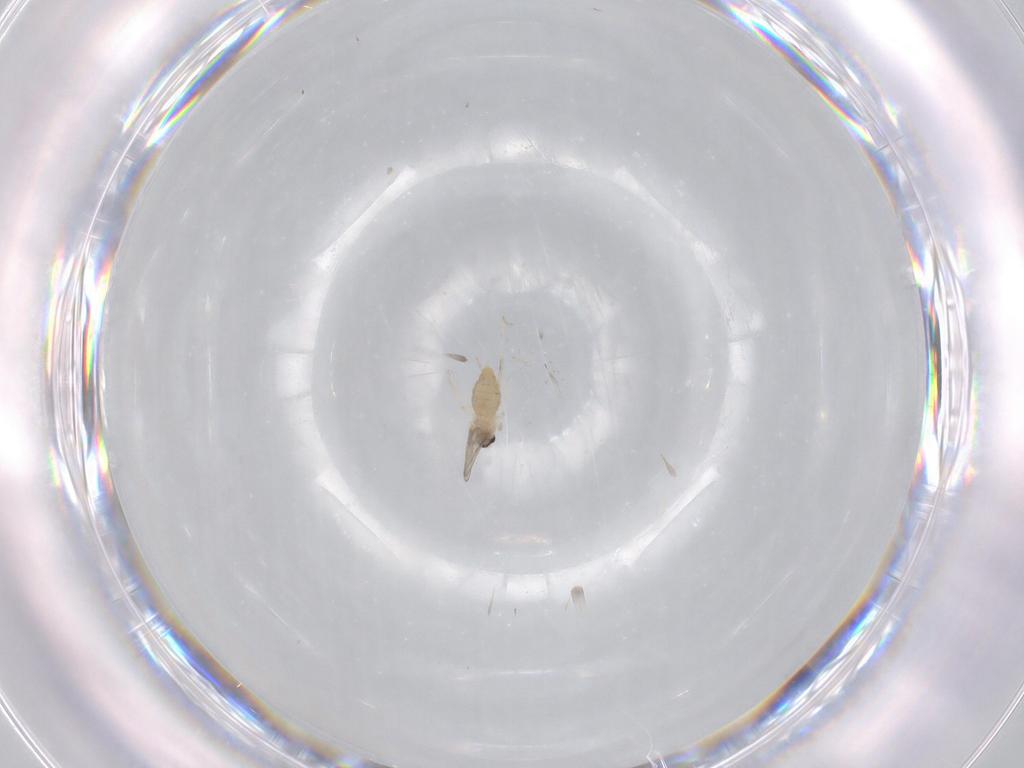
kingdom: Animalia
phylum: Arthropoda
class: Insecta
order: Diptera
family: Cecidomyiidae
